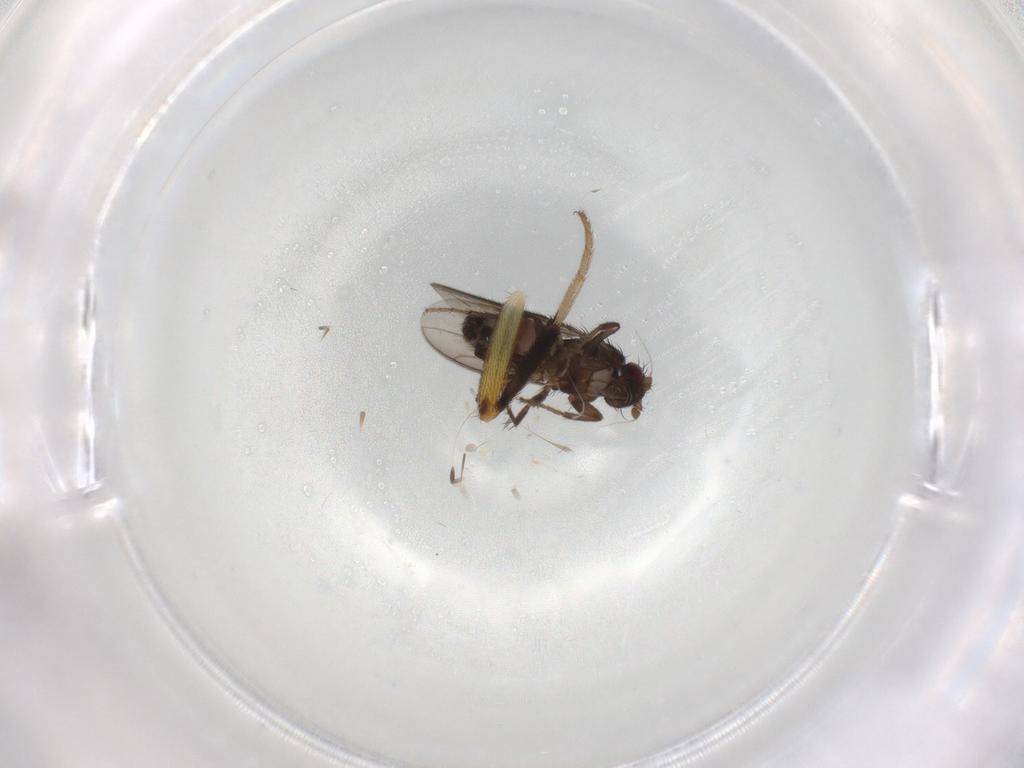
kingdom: Animalia
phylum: Arthropoda
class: Insecta
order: Diptera
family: Sphaeroceridae
